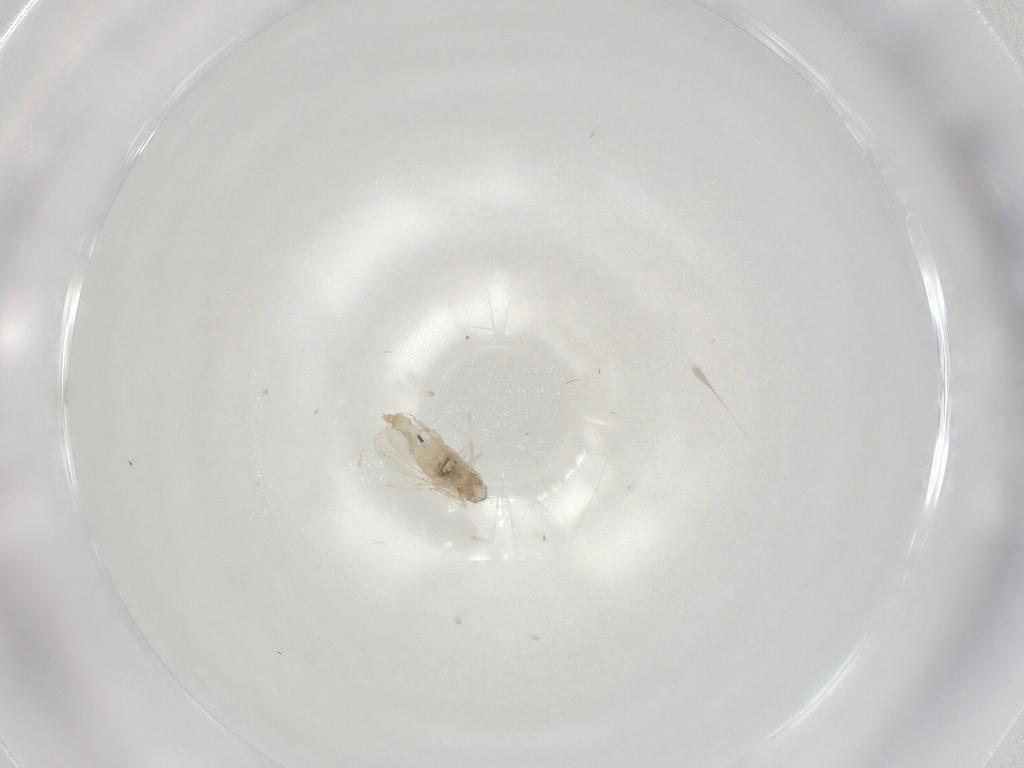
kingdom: Animalia
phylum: Arthropoda
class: Insecta
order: Diptera
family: Cecidomyiidae
